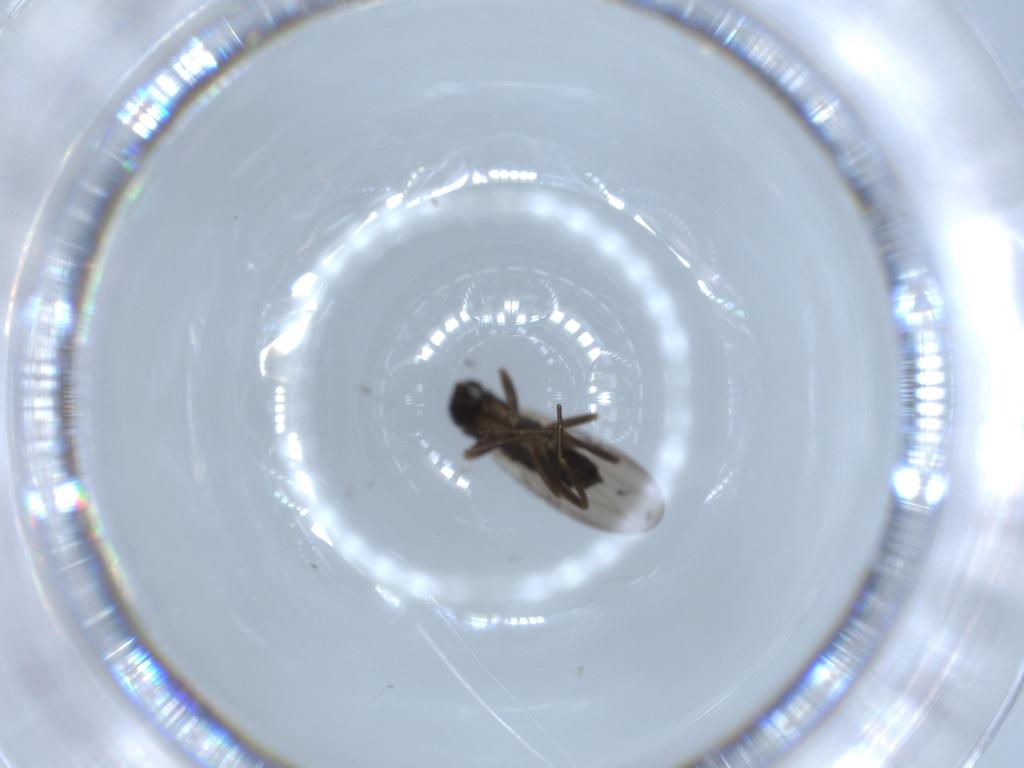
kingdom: Animalia
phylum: Arthropoda
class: Insecta
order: Diptera
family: Phoridae
